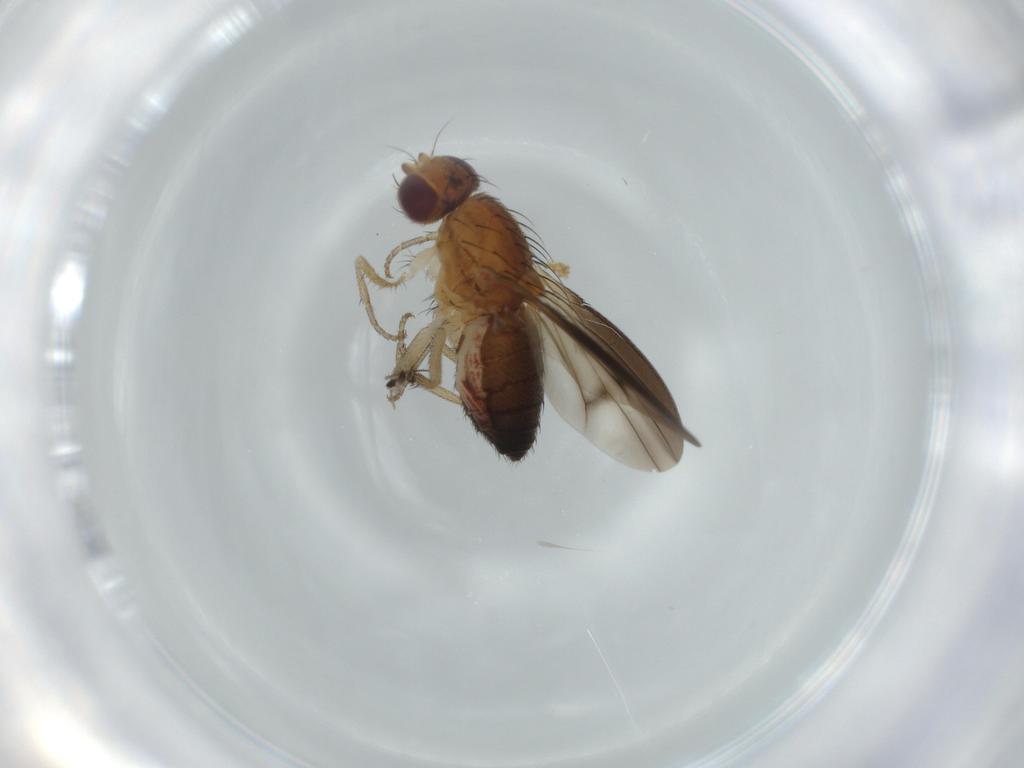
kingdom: Animalia
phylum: Arthropoda
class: Insecta
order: Diptera
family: Heleomyzidae
